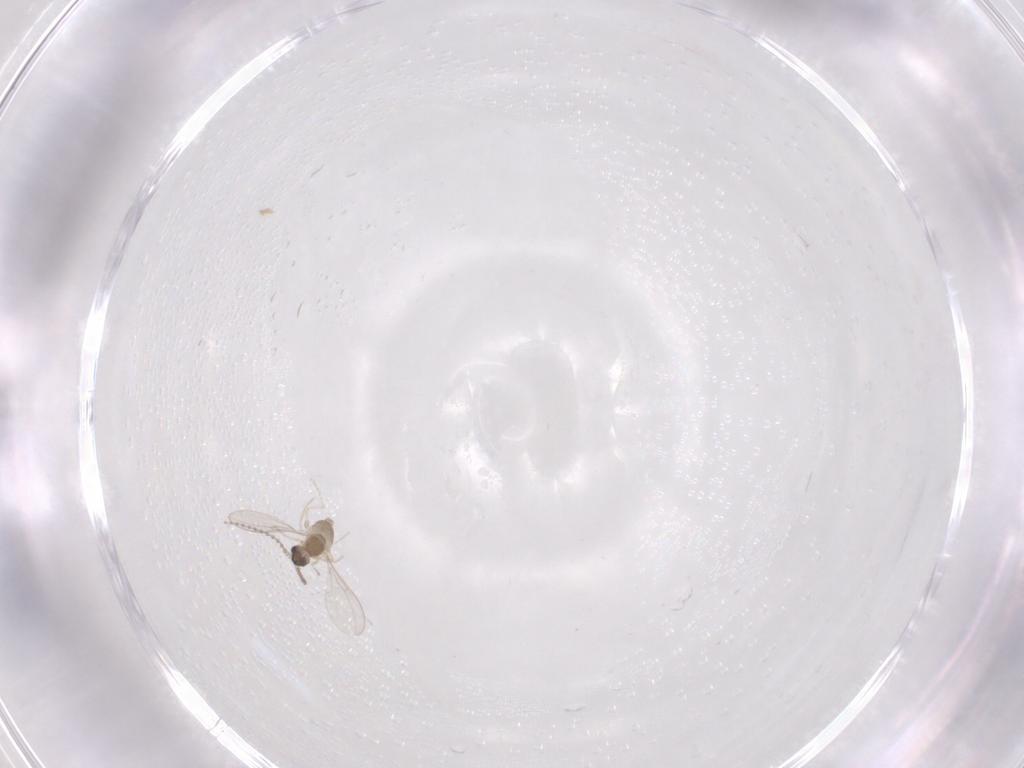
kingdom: Animalia
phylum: Arthropoda
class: Insecta
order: Diptera
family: Cecidomyiidae
